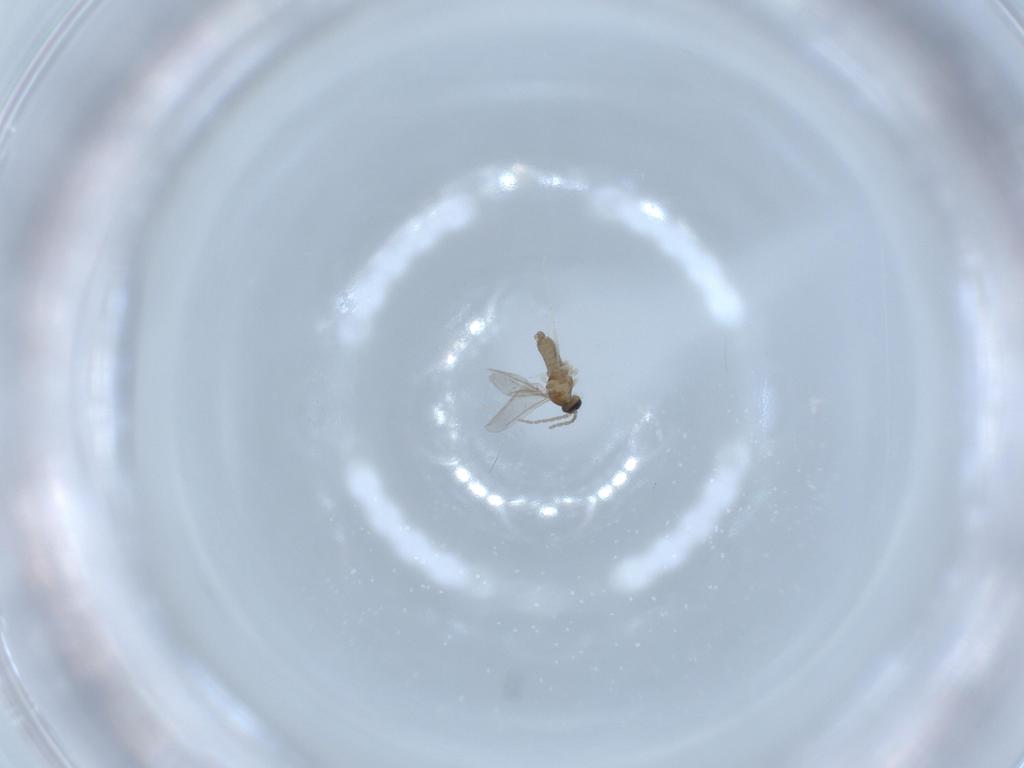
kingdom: Animalia
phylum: Arthropoda
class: Insecta
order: Diptera
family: Cecidomyiidae
